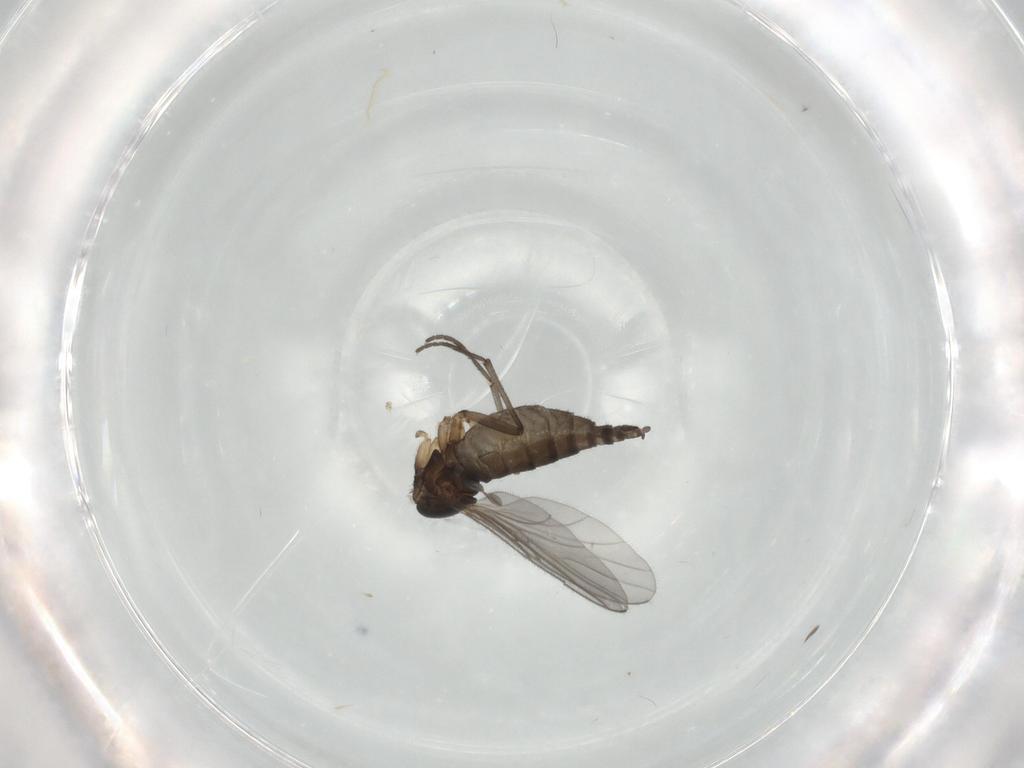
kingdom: Animalia
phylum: Arthropoda
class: Insecta
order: Diptera
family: Sciaridae
